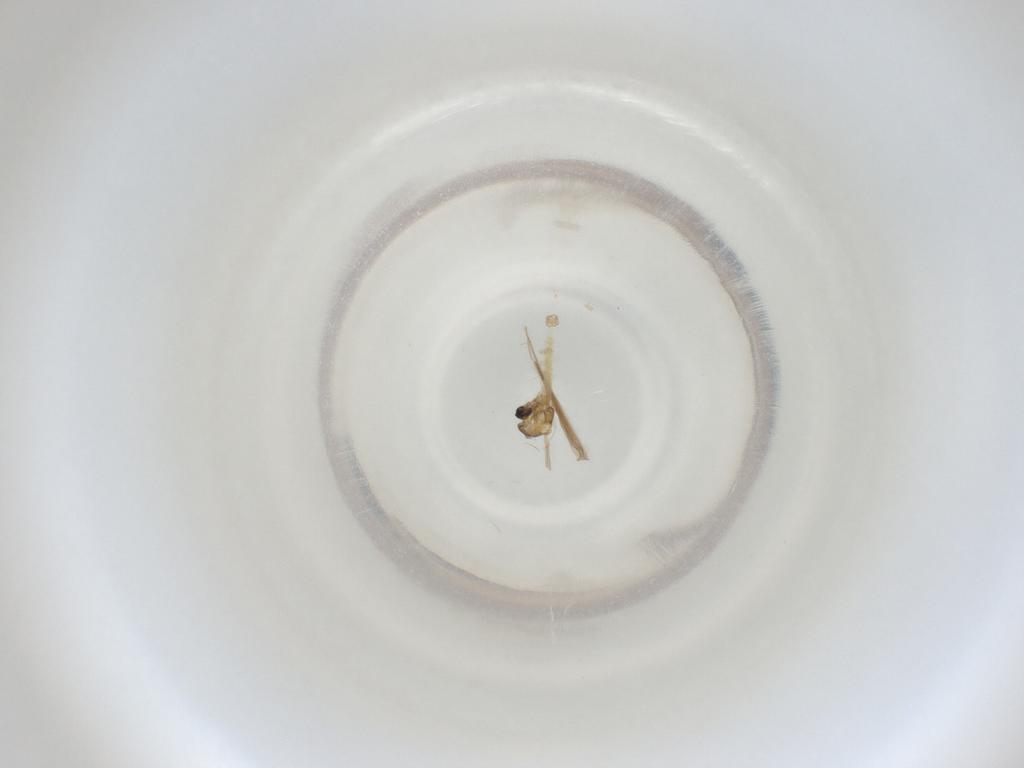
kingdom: Animalia
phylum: Arthropoda
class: Insecta
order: Diptera
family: Cecidomyiidae
